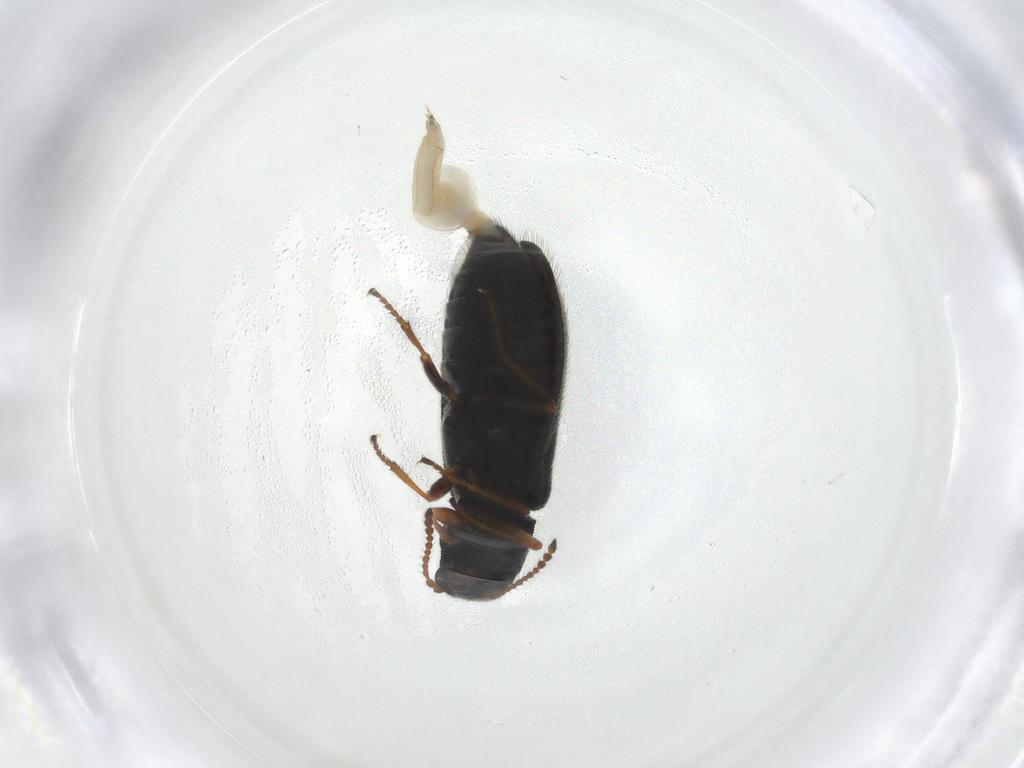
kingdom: Animalia
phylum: Arthropoda
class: Insecta
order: Coleoptera
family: Melyridae
